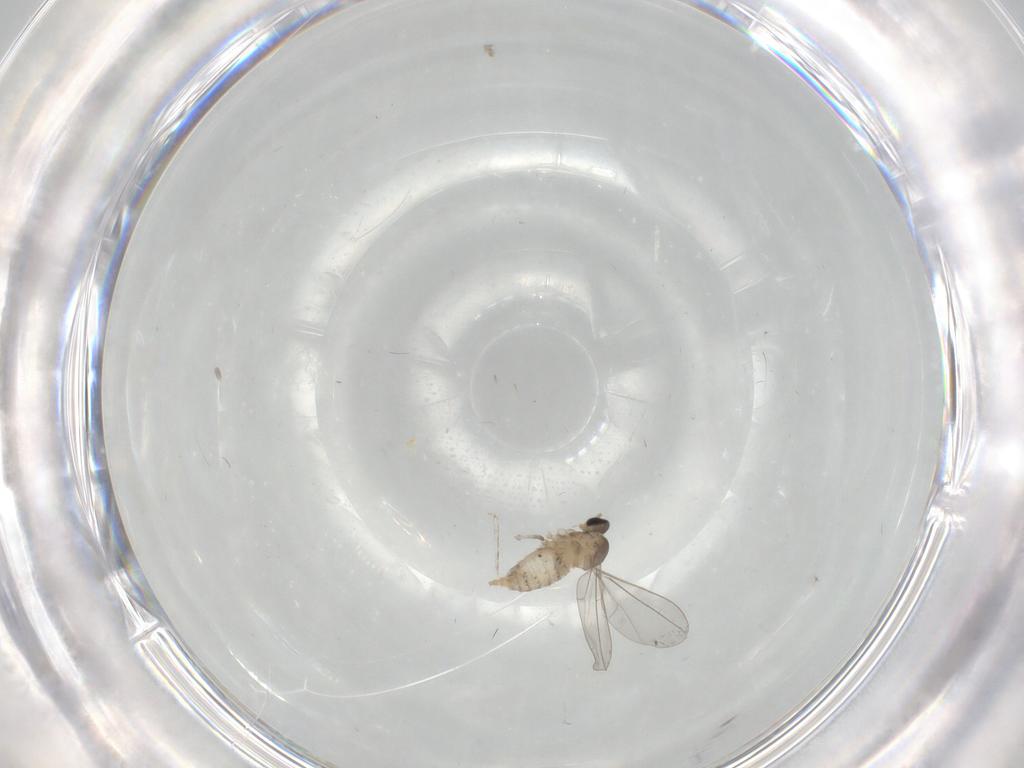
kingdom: Animalia
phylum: Arthropoda
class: Insecta
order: Diptera
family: Cecidomyiidae
